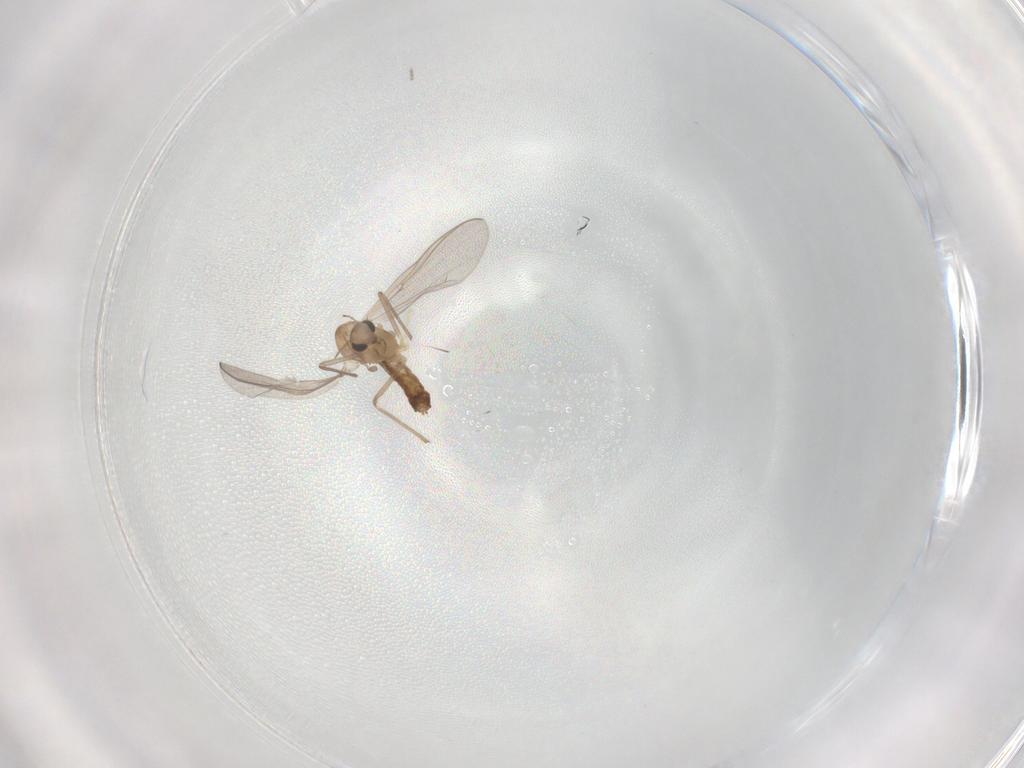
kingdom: Animalia
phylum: Arthropoda
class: Insecta
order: Diptera
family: Chironomidae
